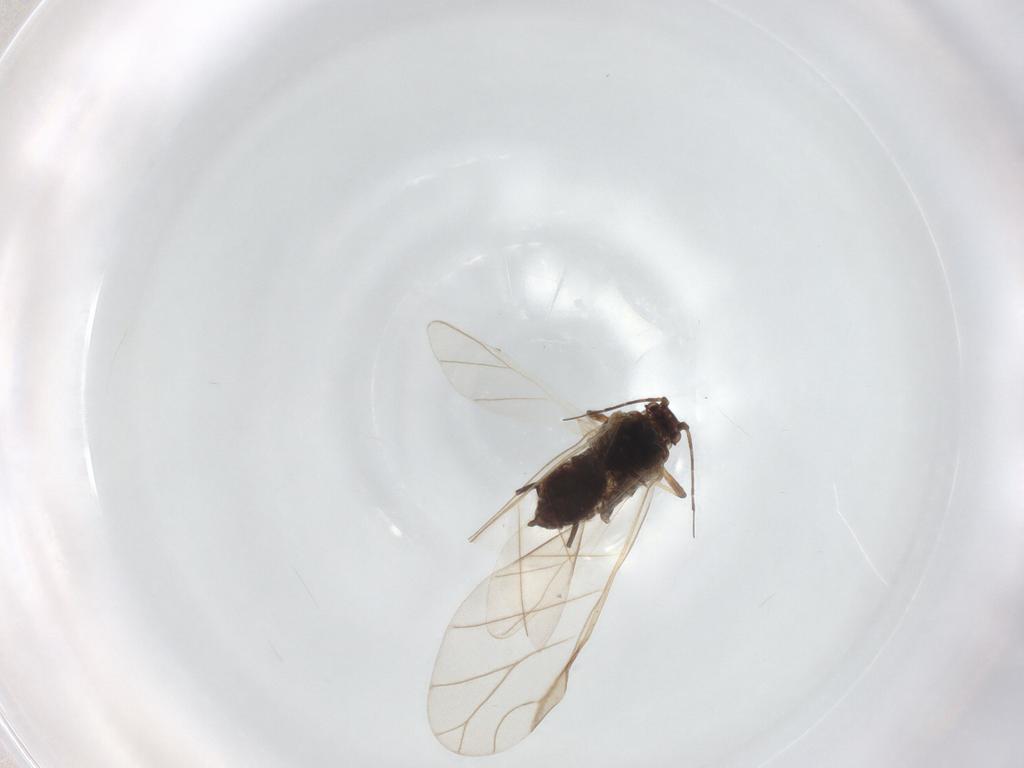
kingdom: Animalia
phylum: Arthropoda
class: Insecta
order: Hemiptera
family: Aphididae
